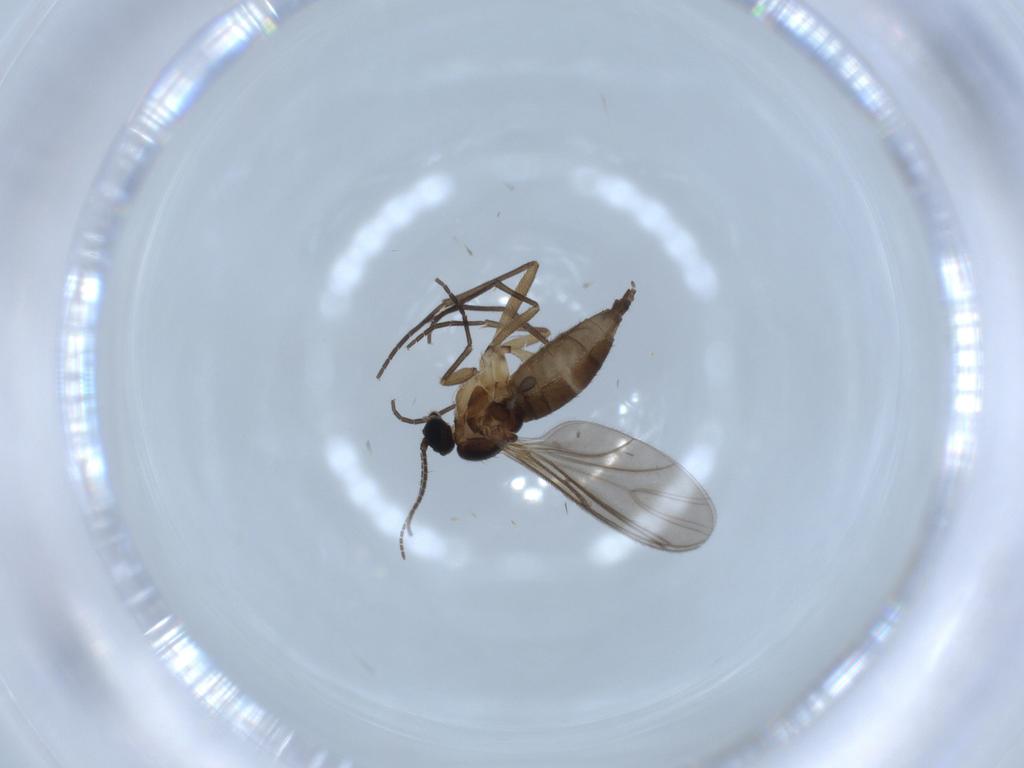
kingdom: Animalia
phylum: Arthropoda
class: Insecta
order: Diptera
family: Sciaridae
